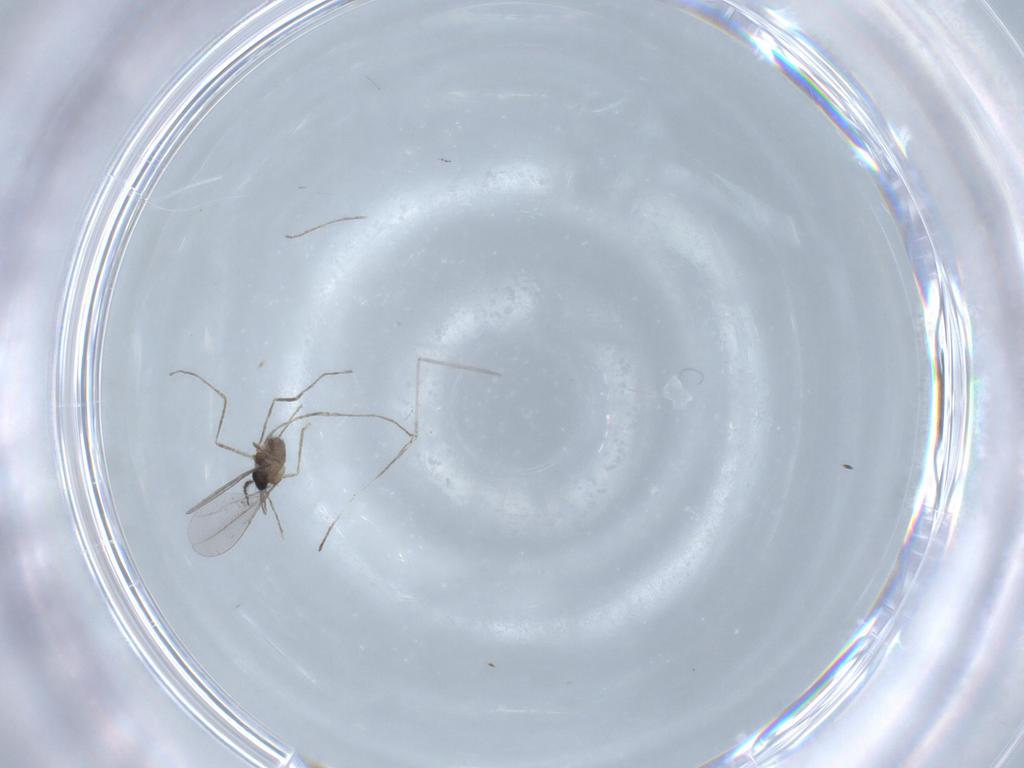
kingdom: Animalia
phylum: Arthropoda
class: Insecta
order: Diptera
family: Cecidomyiidae
